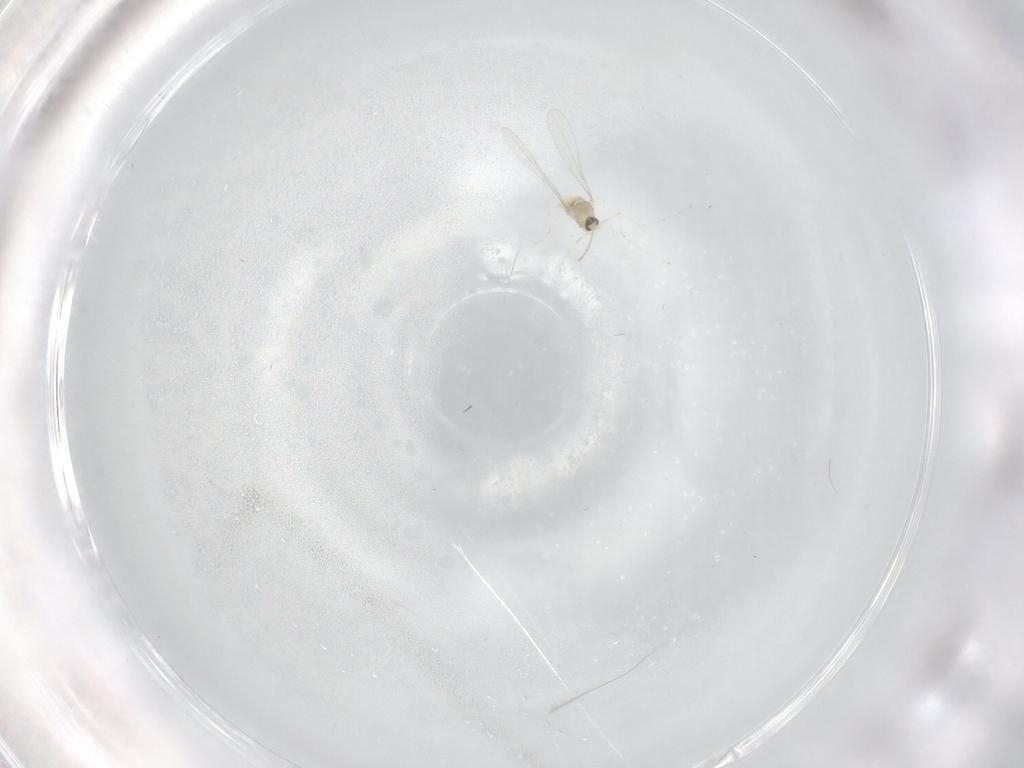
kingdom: Animalia
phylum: Arthropoda
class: Insecta
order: Diptera
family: Cecidomyiidae
